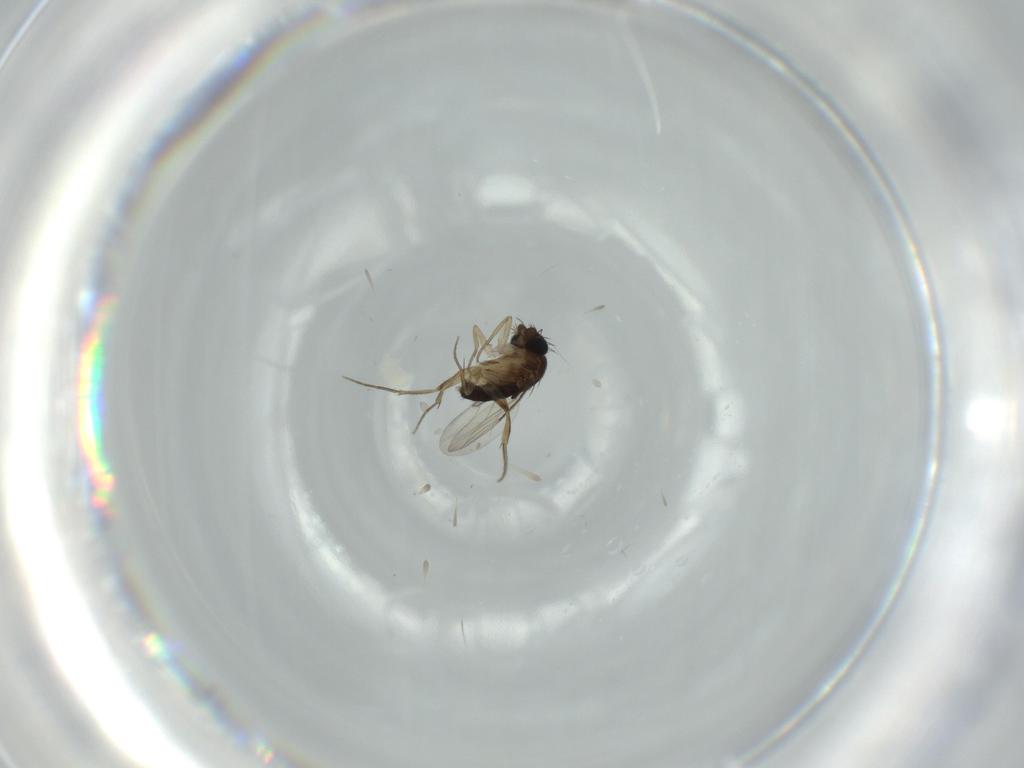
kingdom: Animalia
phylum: Arthropoda
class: Insecta
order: Diptera
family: Phoridae
